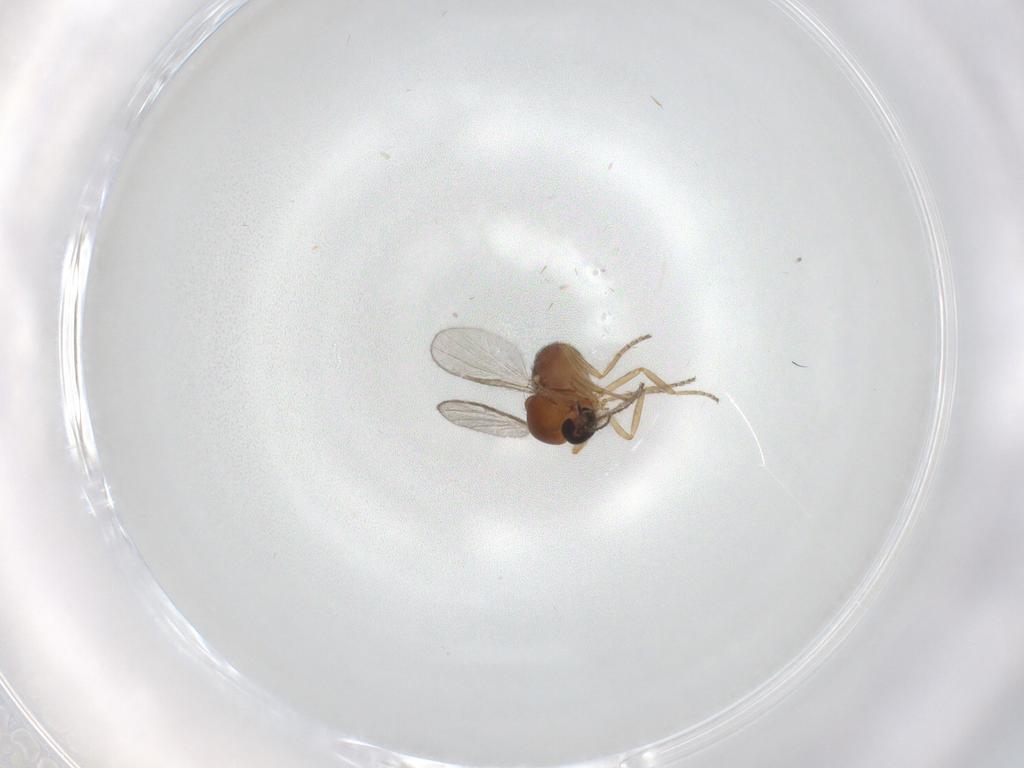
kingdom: Animalia
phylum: Arthropoda
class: Insecta
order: Diptera
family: Ceratopogonidae
